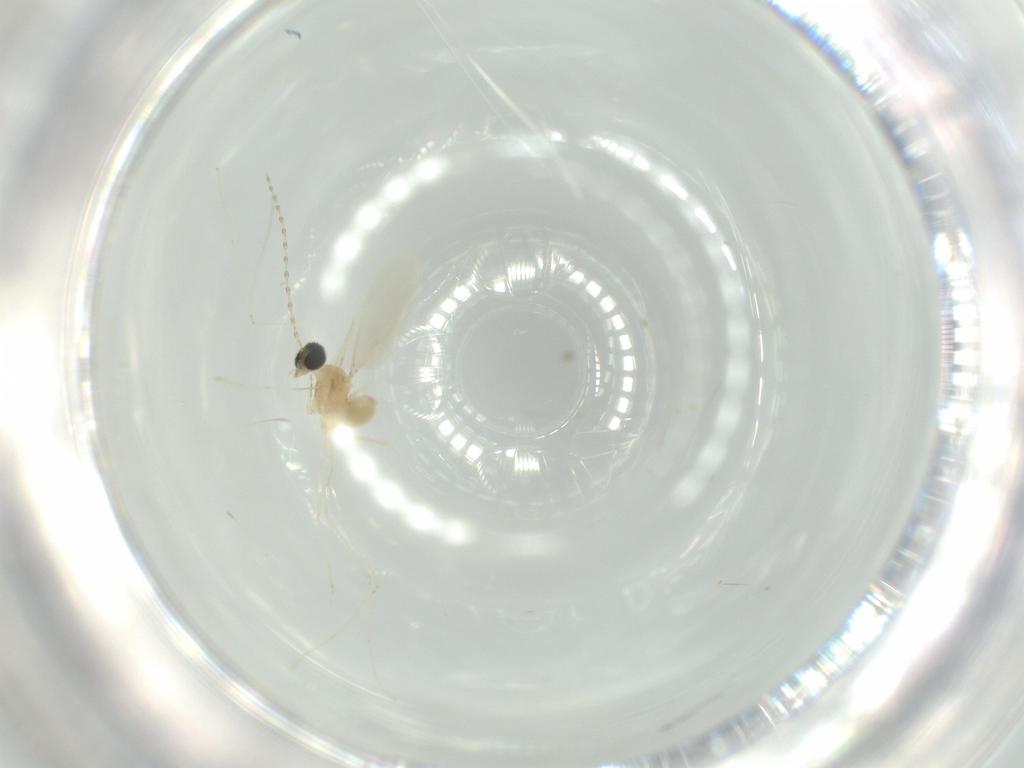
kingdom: Animalia
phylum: Arthropoda
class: Insecta
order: Diptera
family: Cecidomyiidae
